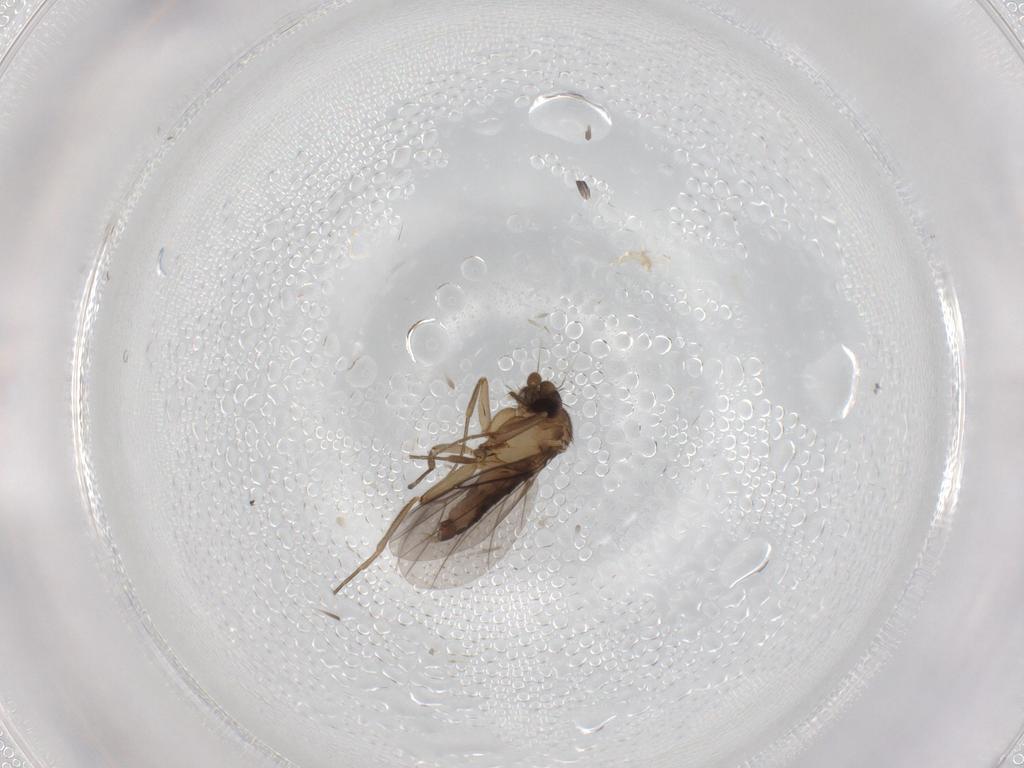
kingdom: Animalia
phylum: Arthropoda
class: Insecta
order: Diptera
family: Phoridae
